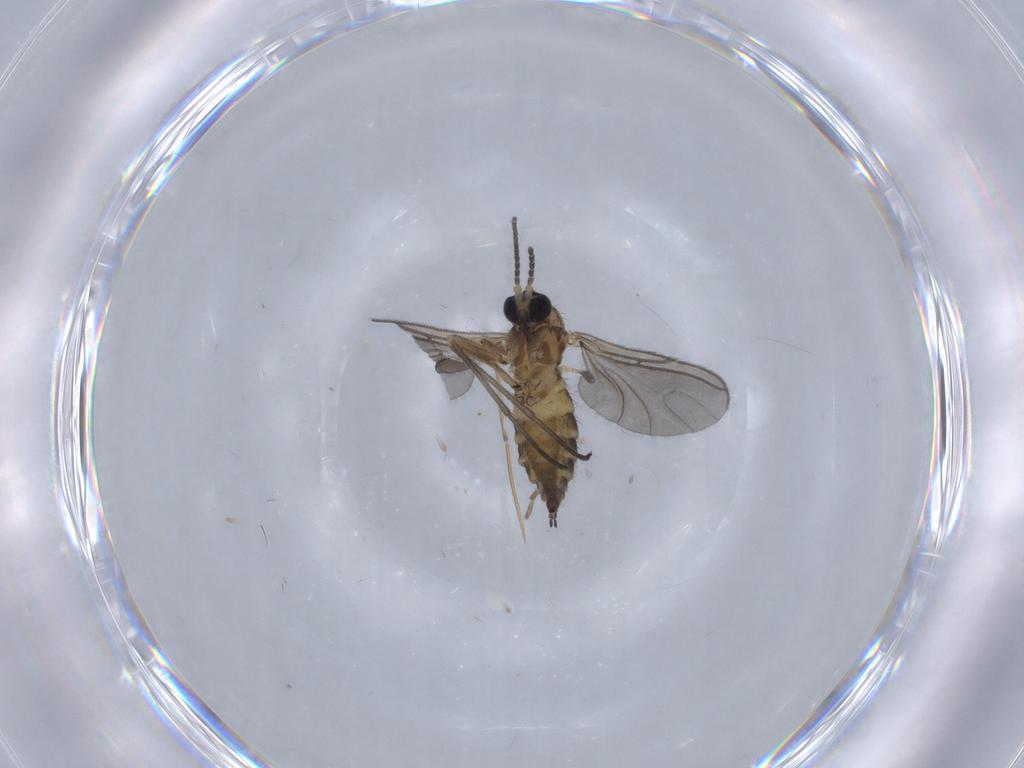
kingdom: Animalia
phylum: Arthropoda
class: Insecta
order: Diptera
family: Sciaridae
